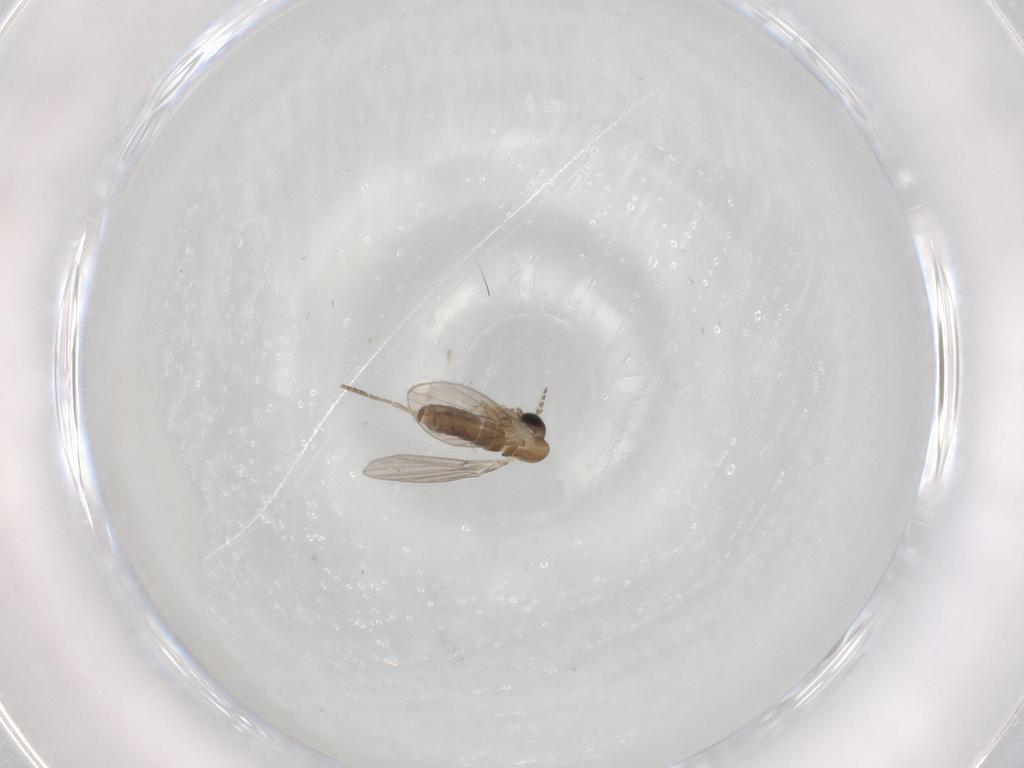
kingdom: Animalia
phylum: Arthropoda
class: Insecta
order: Diptera
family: Psychodidae
